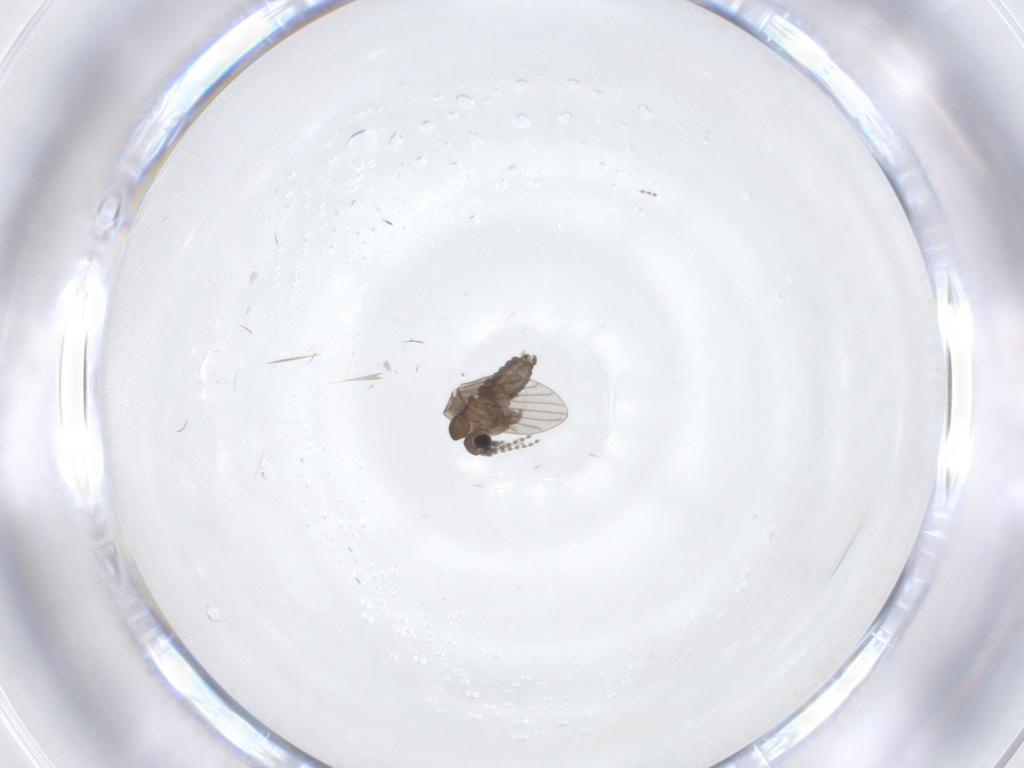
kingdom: Animalia
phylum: Arthropoda
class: Insecta
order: Diptera
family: Psychodidae
